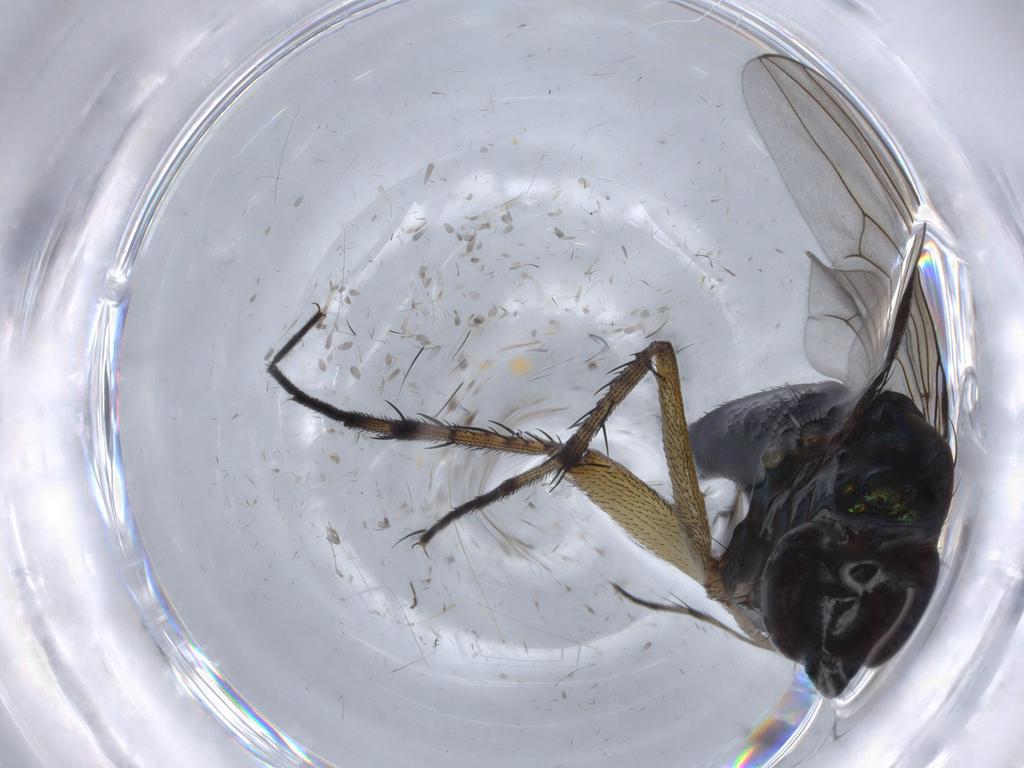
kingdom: Animalia
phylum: Arthropoda
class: Insecta
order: Diptera
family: Dolichopodidae
